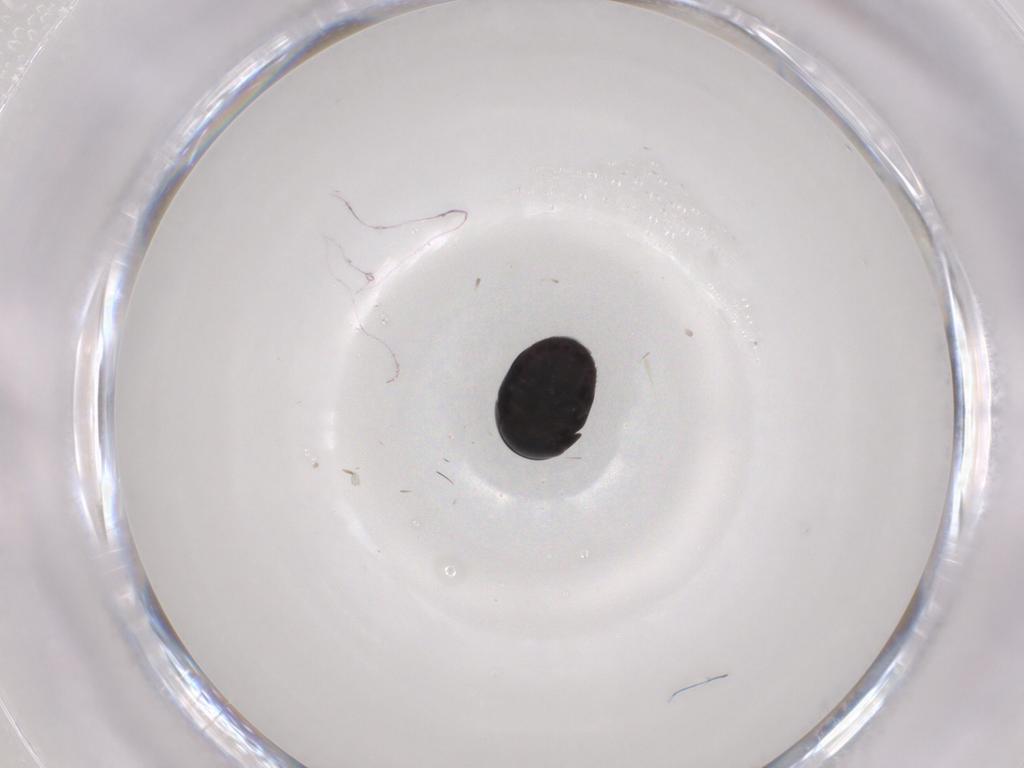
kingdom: Animalia
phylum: Arthropoda
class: Insecta
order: Coleoptera
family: Cybocephalidae
